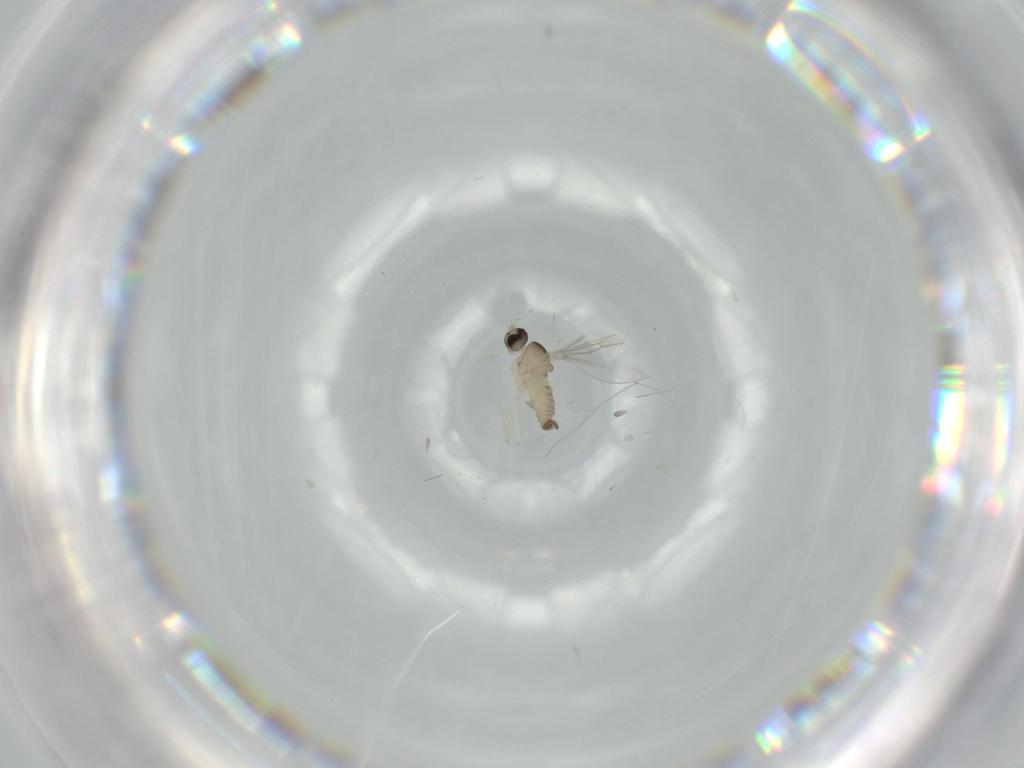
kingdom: Animalia
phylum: Arthropoda
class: Insecta
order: Diptera
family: Cecidomyiidae
